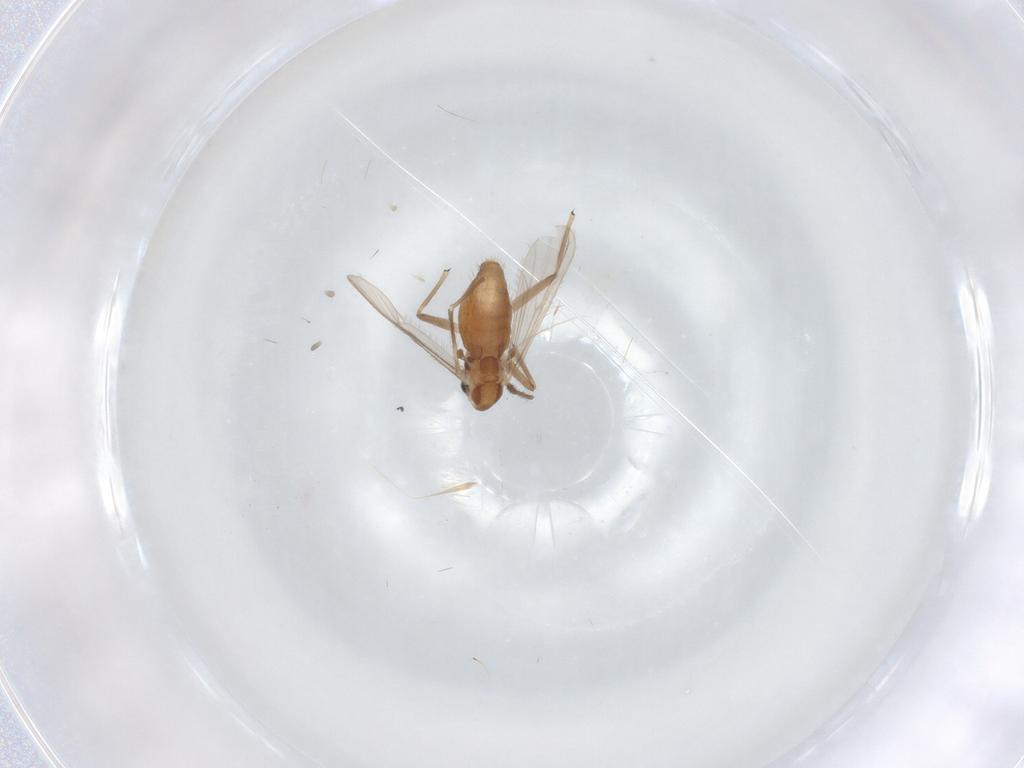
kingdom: Animalia
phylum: Arthropoda
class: Insecta
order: Diptera
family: Chironomidae
